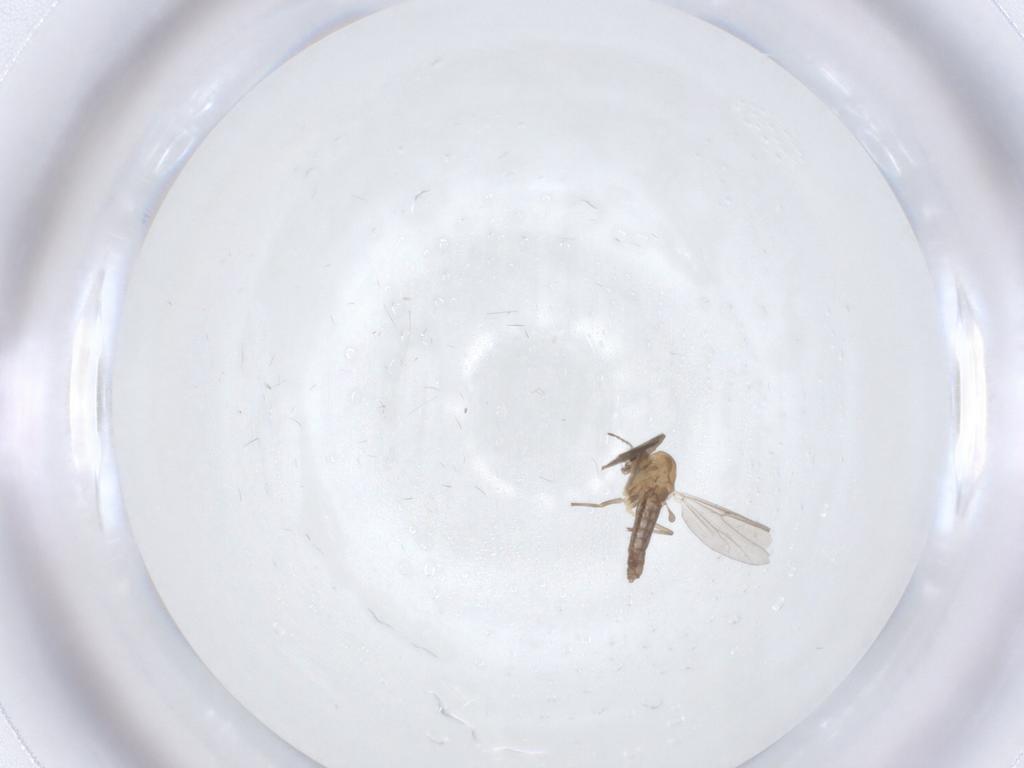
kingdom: Animalia
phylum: Arthropoda
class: Insecta
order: Diptera
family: Chironomidae
